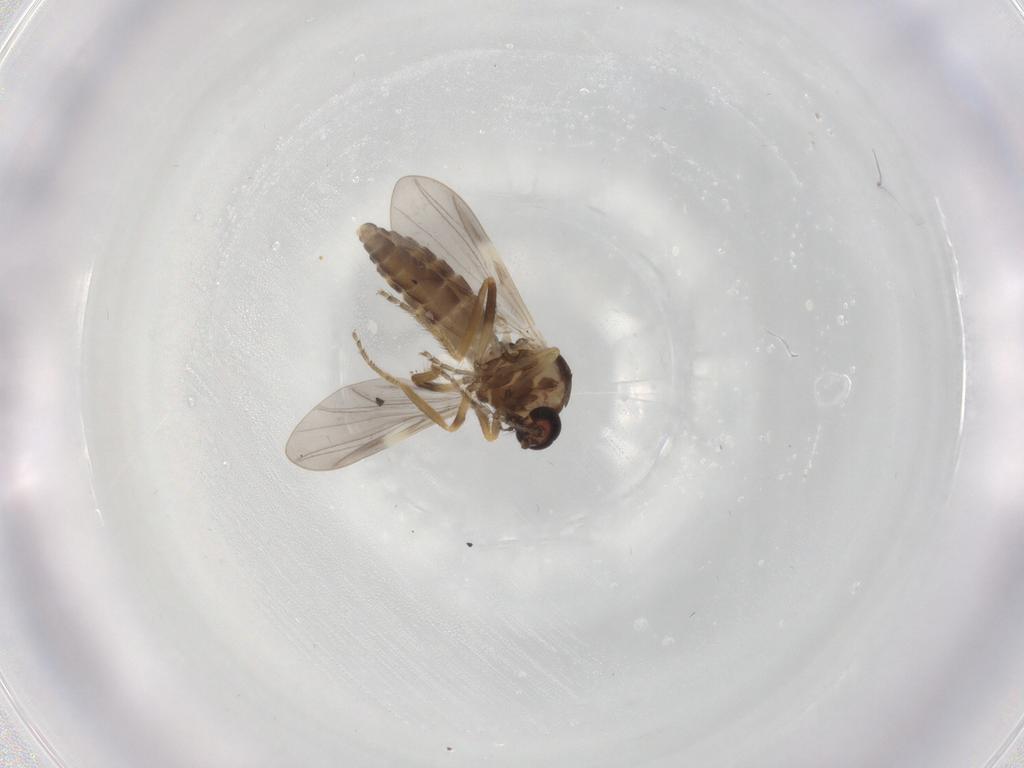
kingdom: Animalia
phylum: Arthropoda
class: Insecta
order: Diptera
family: Ceratopogonidae
